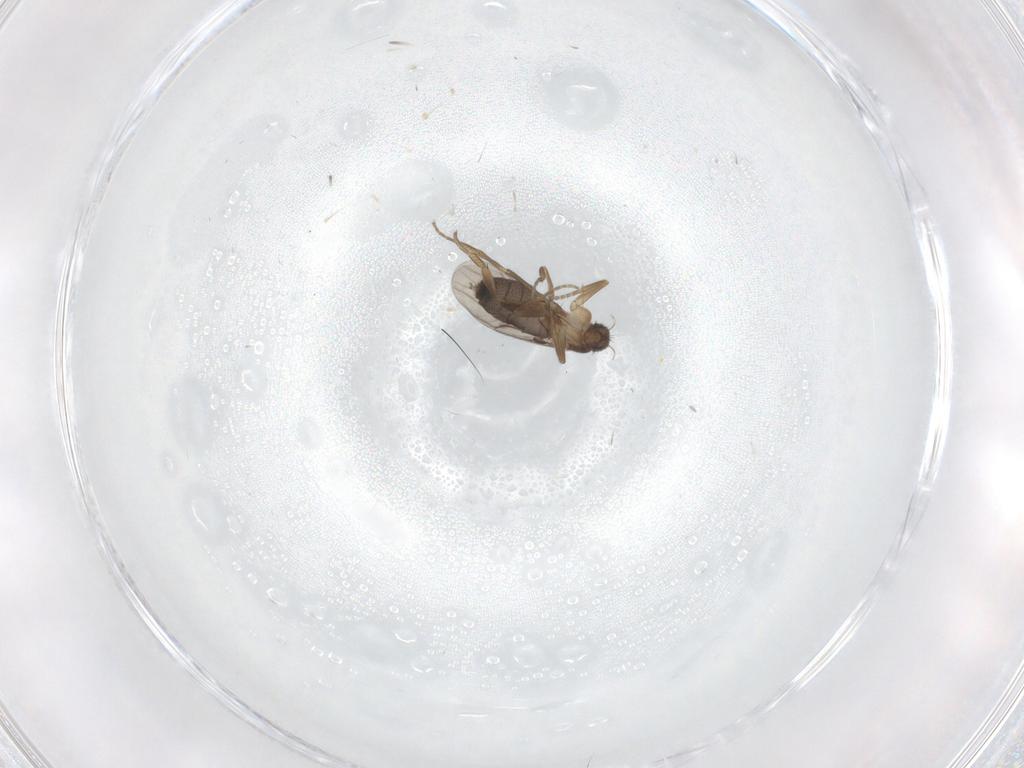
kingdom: Animalia
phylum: Arthropoda
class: Insecta
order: Diptera
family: Psychodidae
